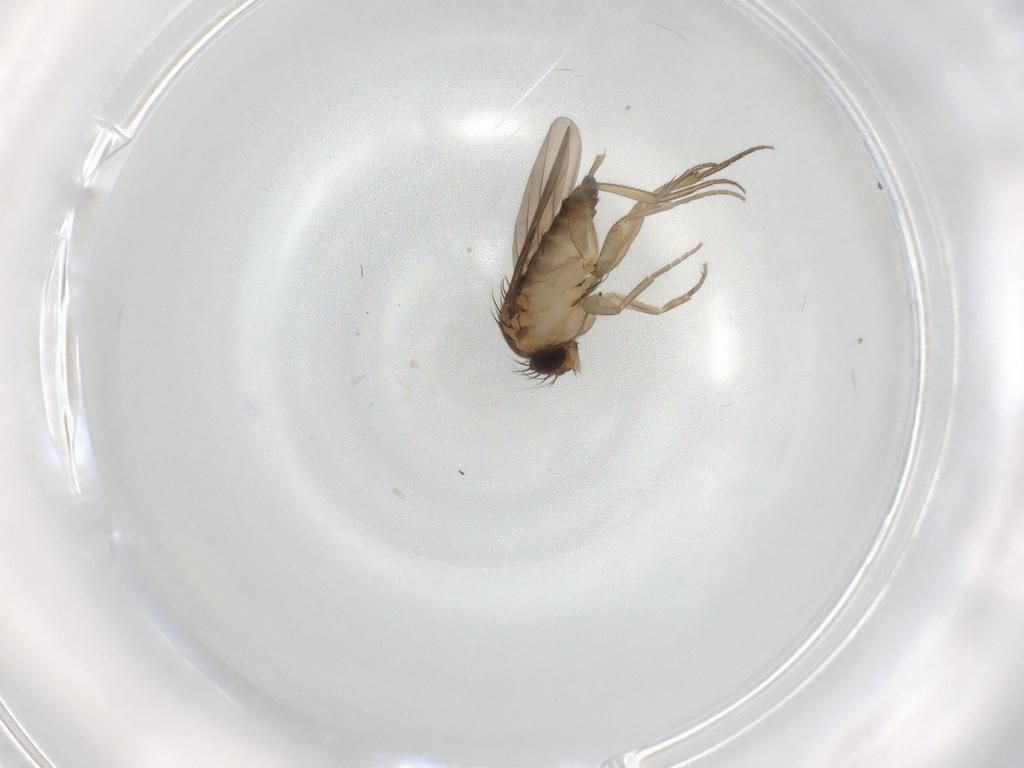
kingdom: Animalia
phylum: Arthropoda
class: Insecta
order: Diptera
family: Phoridae
